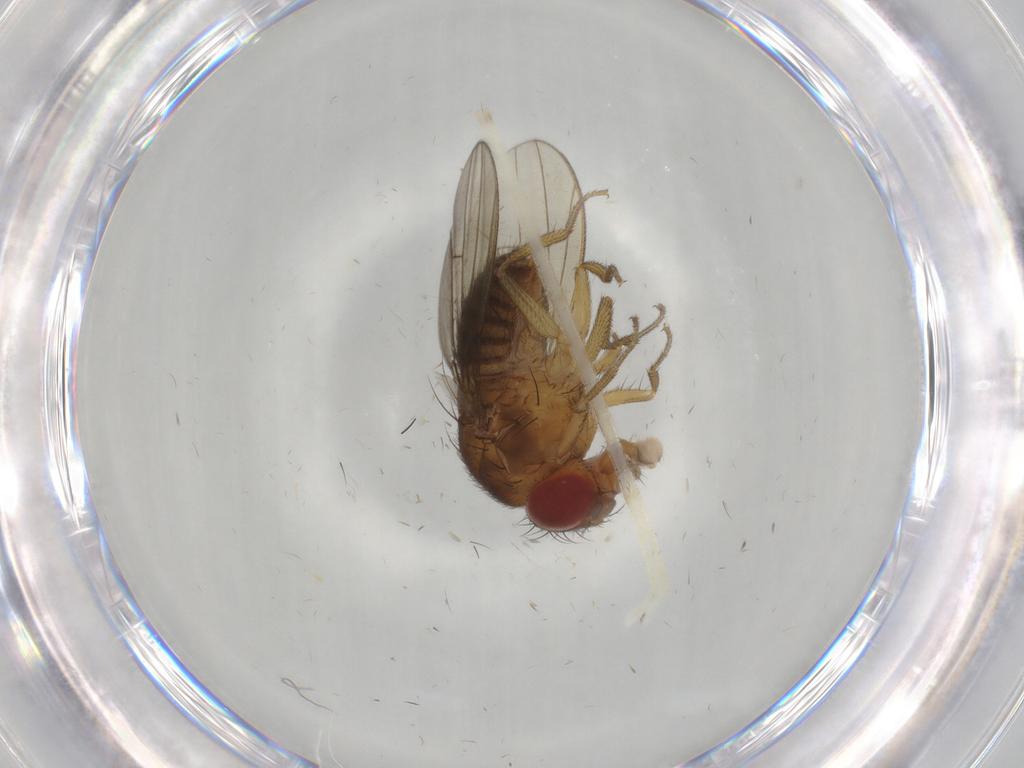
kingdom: Animalia
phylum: Arthropoda
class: Insecta
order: Diptera
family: Drosophilidae
